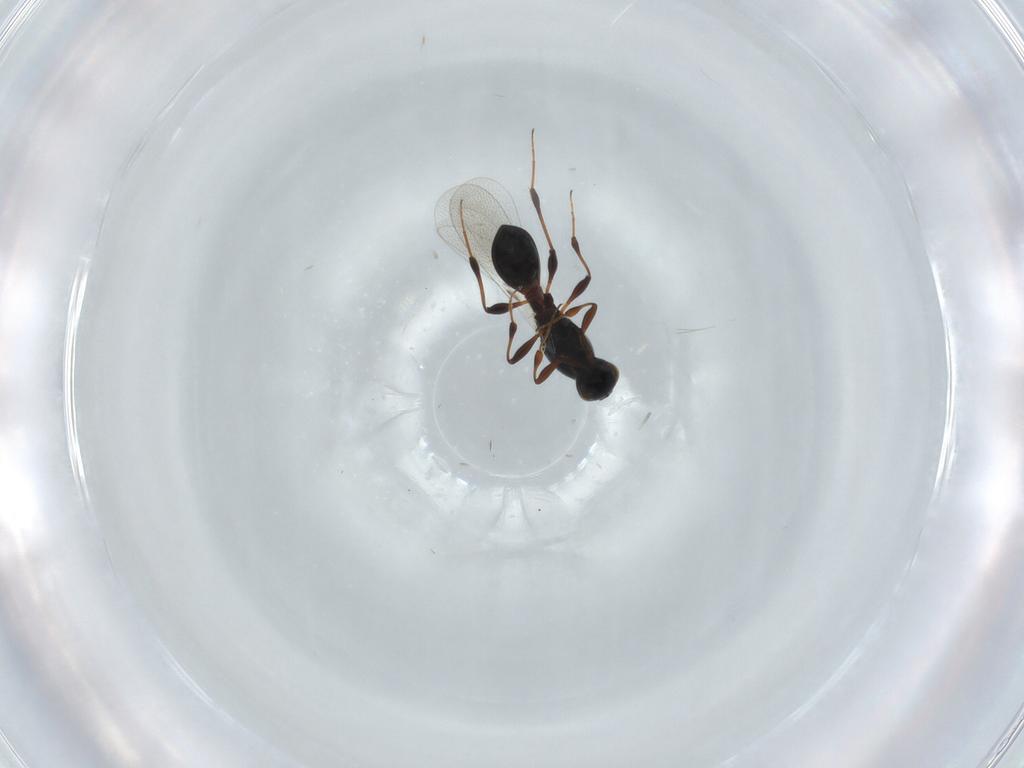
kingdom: Animalia
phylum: Arthropoda
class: Insecta
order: Hymenoptera
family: Platygastridae
